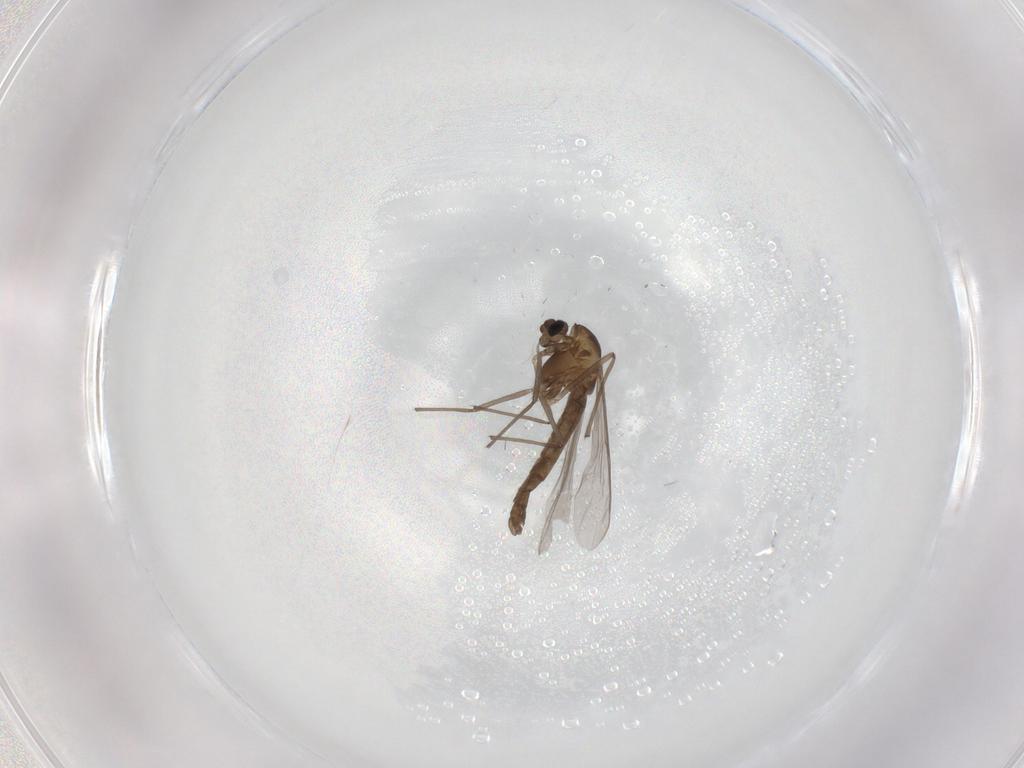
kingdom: Animalia
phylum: Arthropoda
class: Insecta
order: Diptera
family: Chironomidae
